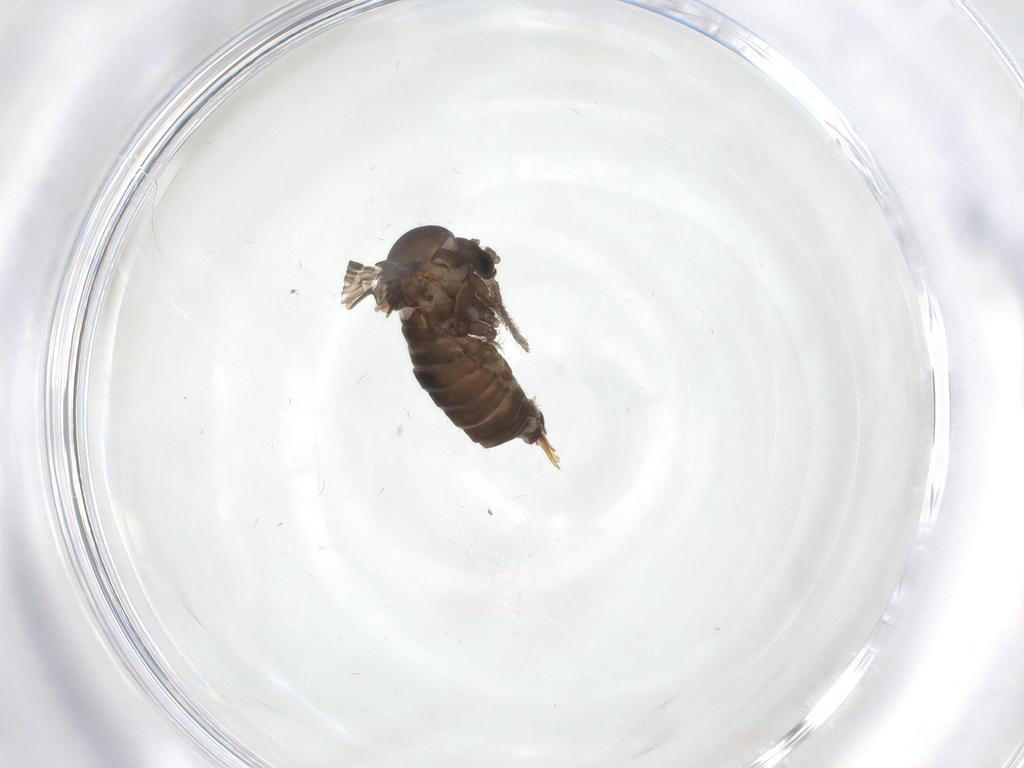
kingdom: Animalia
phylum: Arthropoda
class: Insecta
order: Diptera
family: Psychodidae
